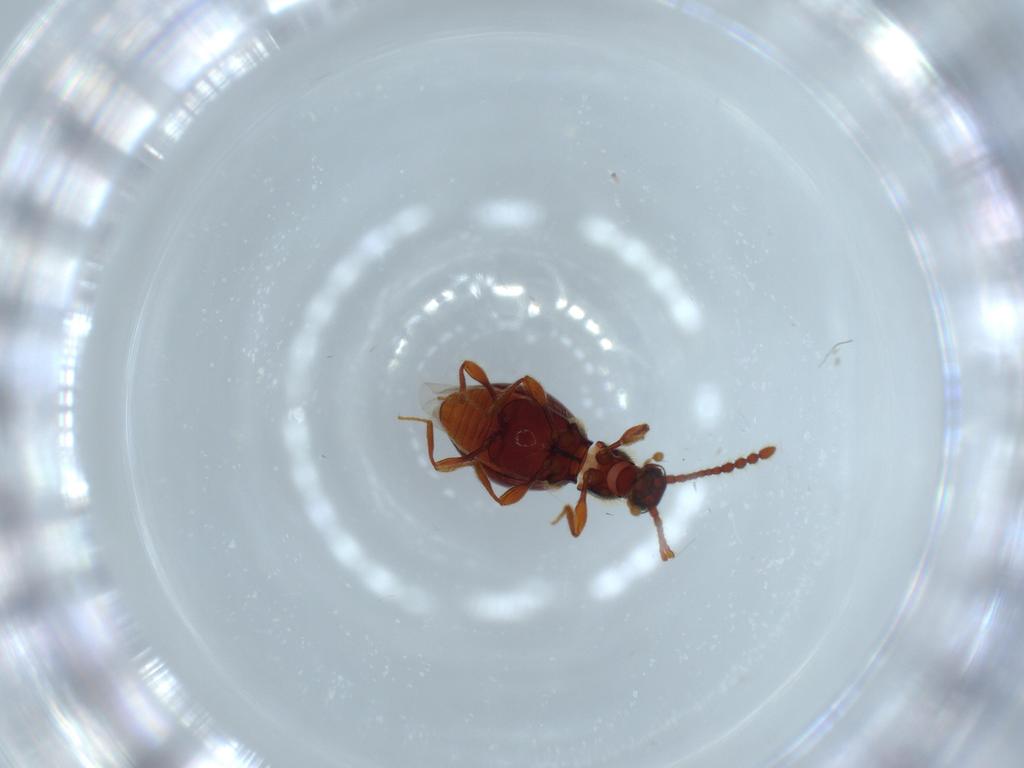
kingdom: Animalia
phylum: Arthropoda
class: Insecta
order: Coleoptera
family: Staphylinidae
